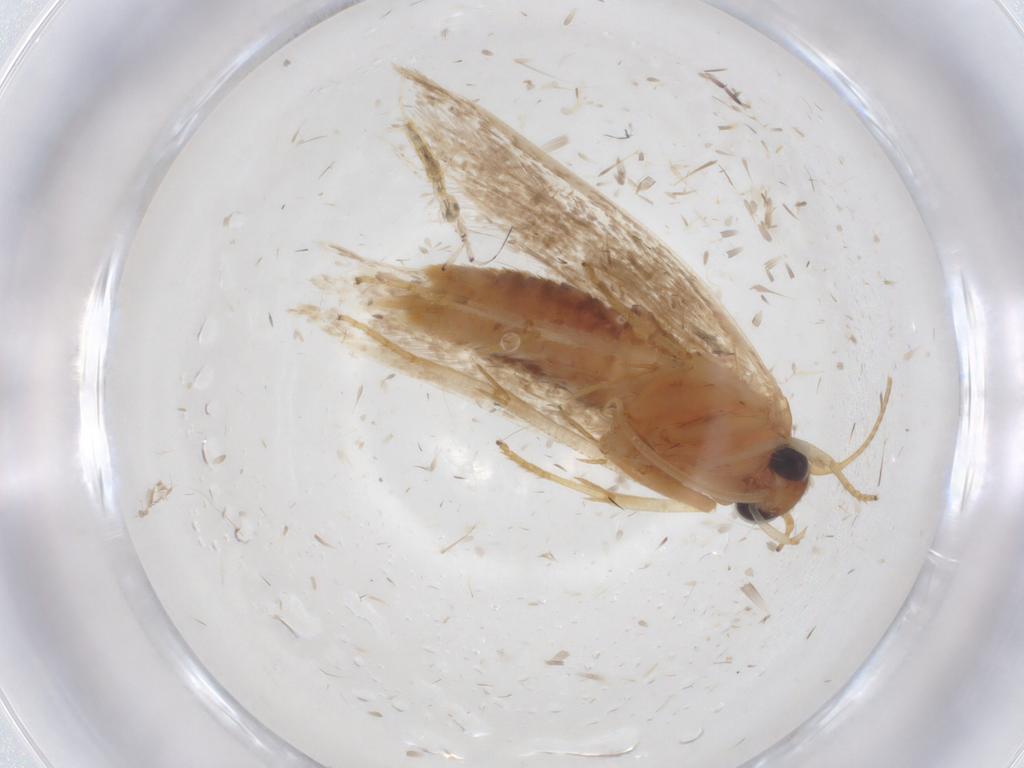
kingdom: Animalia
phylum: Arthropoda
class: Insecta
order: Lepidoptera
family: Blastobasidae
